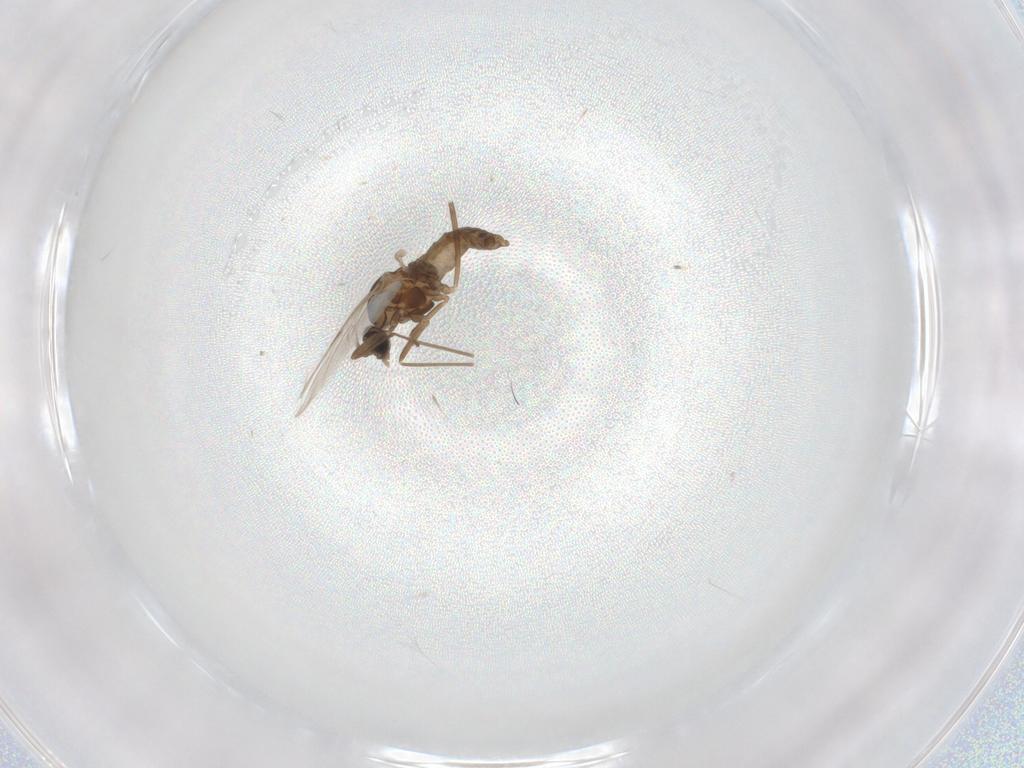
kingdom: Animalia
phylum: Arthropoda
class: Insecta
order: Diptera
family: Cecidomyiidae
